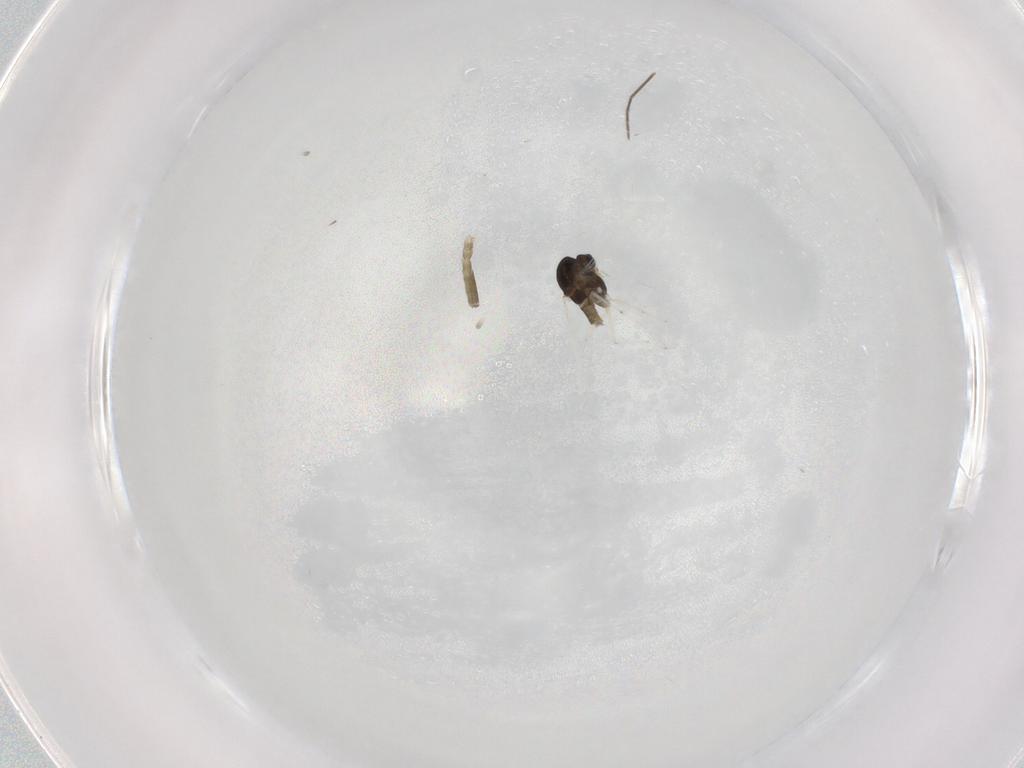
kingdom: Animalia
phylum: Arthropoda
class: Insecta
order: Diptera
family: Chironomidae
